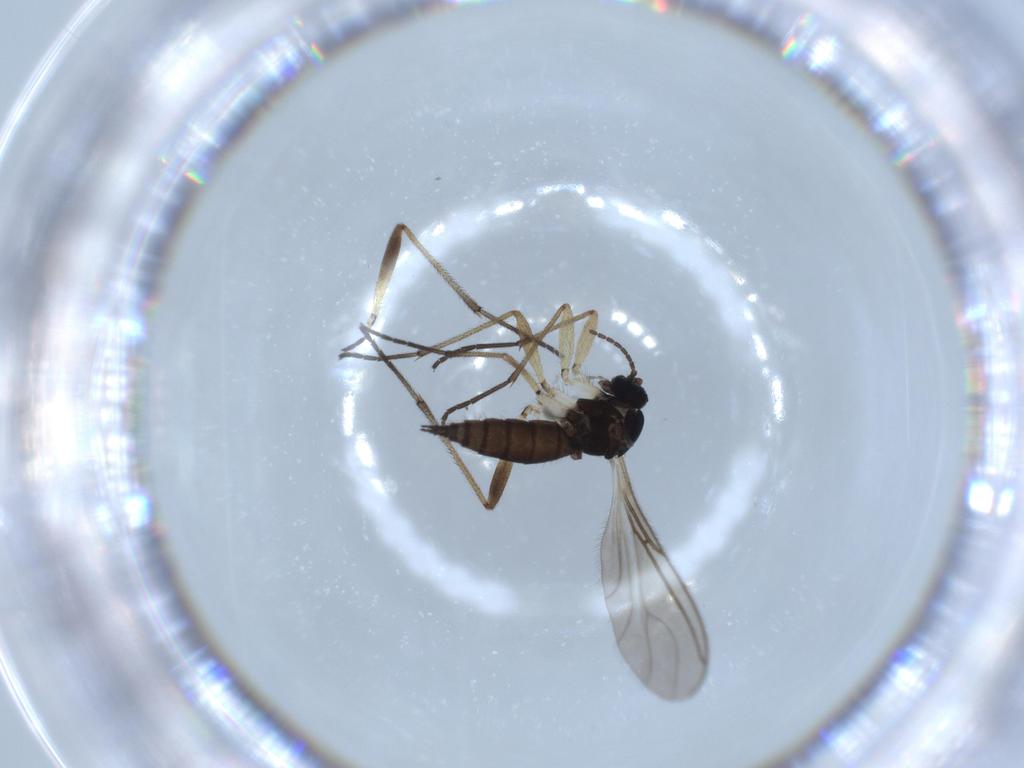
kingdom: Animalia
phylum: Arthropoda
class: Insecta
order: Diptera
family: Sciaridae
